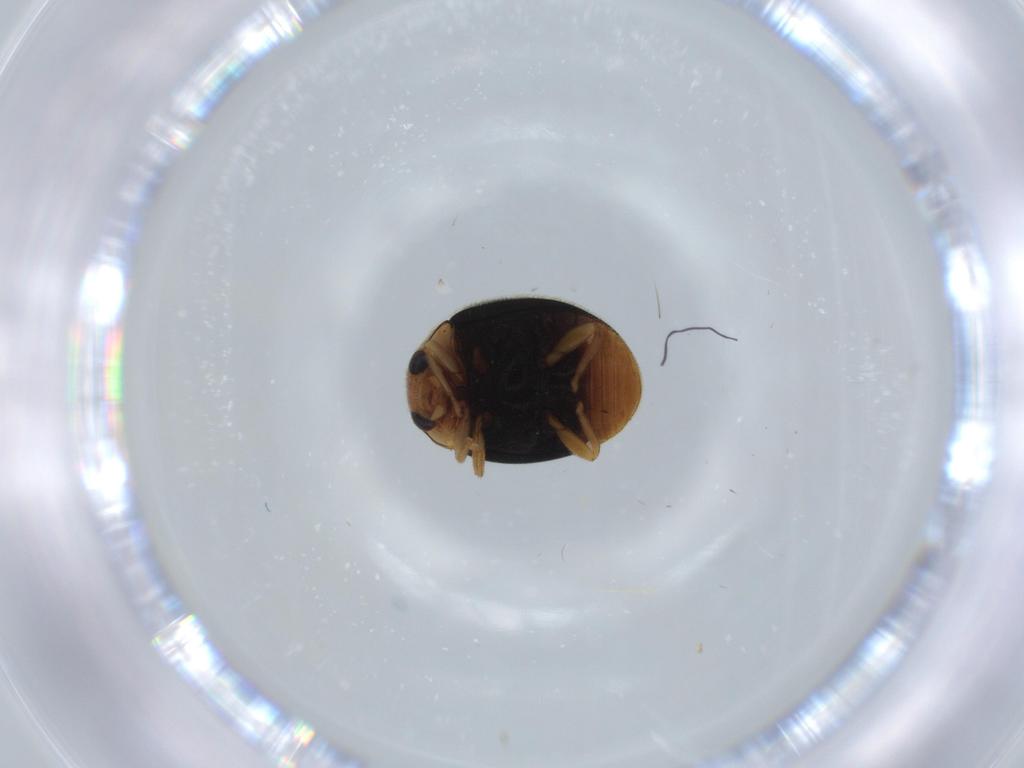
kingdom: Animalia
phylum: Arthropoda
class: Insecta
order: Coleoptera
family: Coccinellidae
